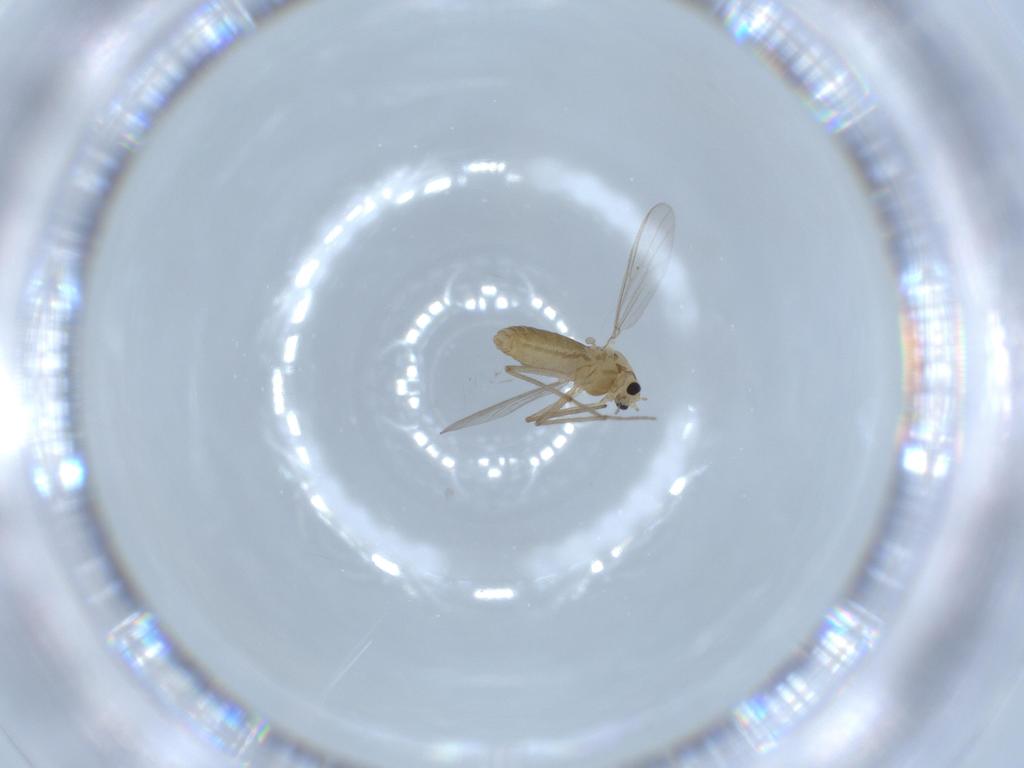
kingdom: Animalia
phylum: Arthropoda
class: Insecta
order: Diptera
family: Chironomidae
